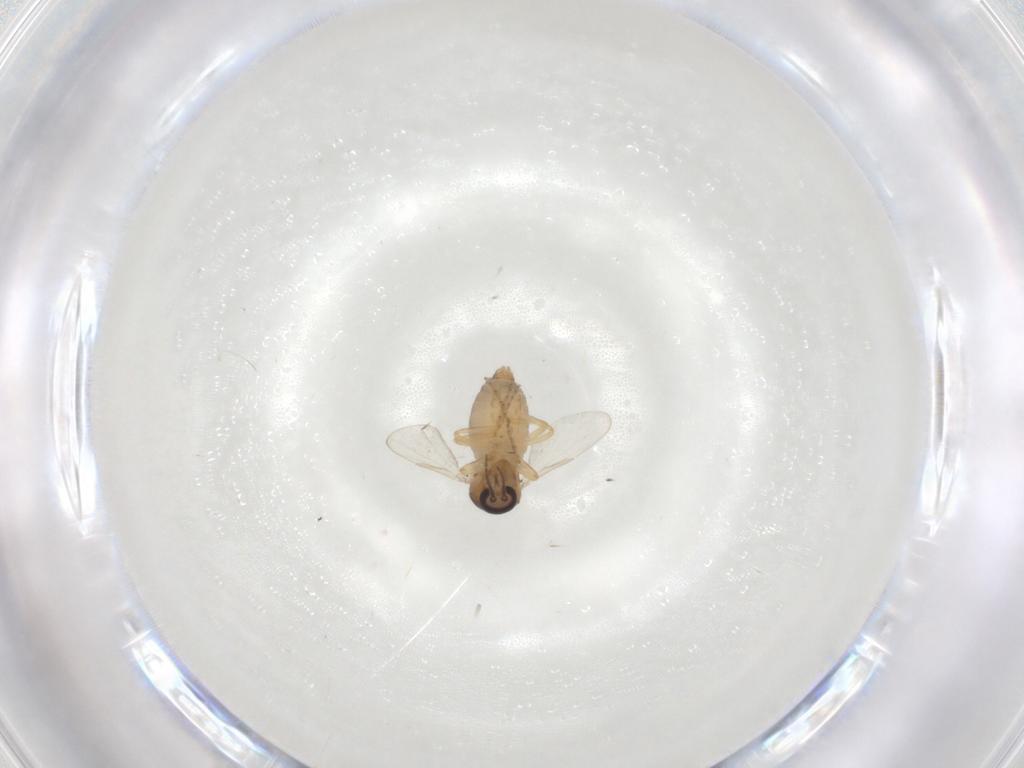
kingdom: Animalia
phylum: Arthropoda
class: Insecta
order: Diptera
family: Ceratopogonidae
